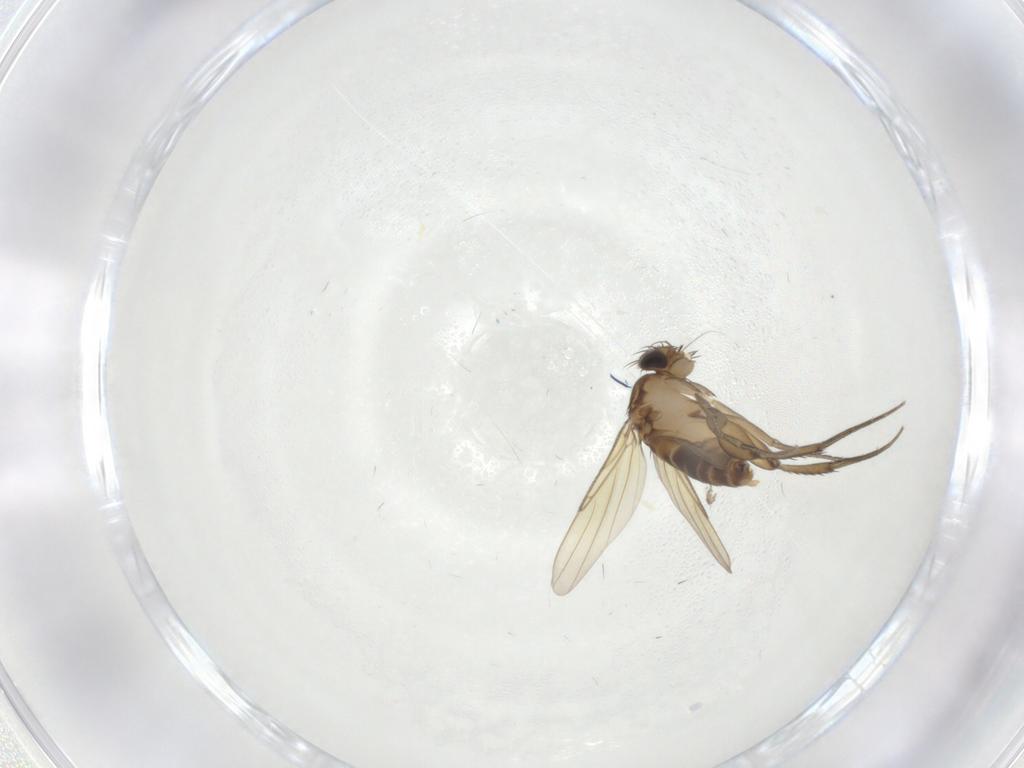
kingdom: Animalia
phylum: Arthropoda
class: Insecta
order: Diptera
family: Phoridae
